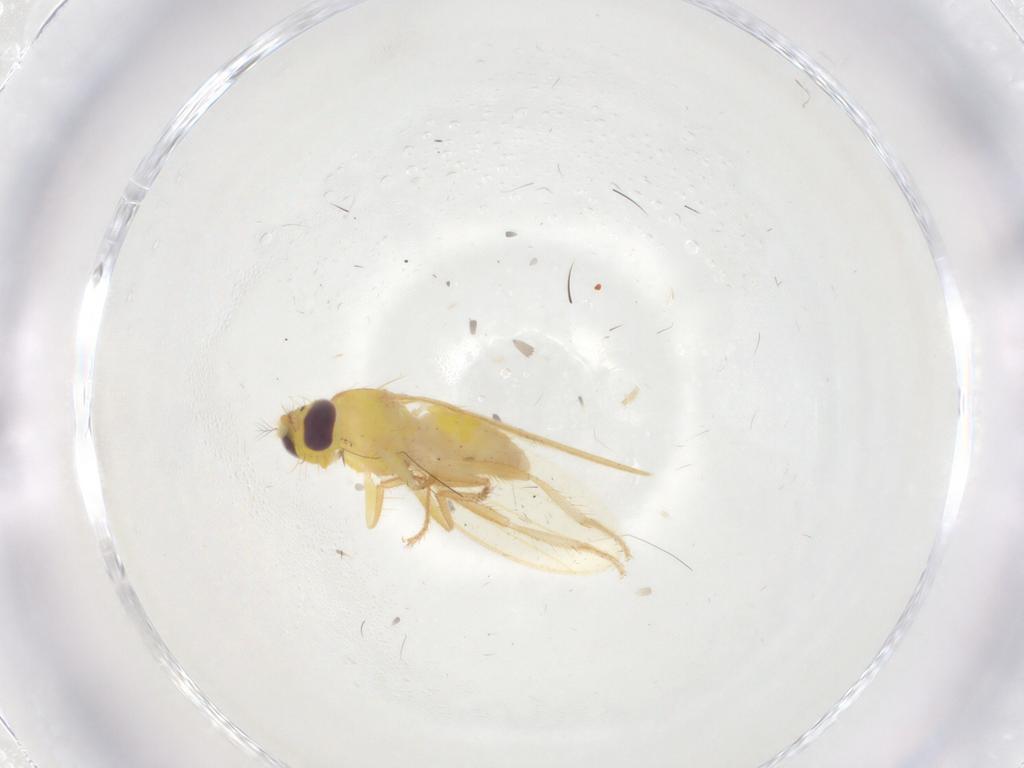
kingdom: Animalia
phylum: Arthropoda
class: Insecta
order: Diptera
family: Periscelididae
